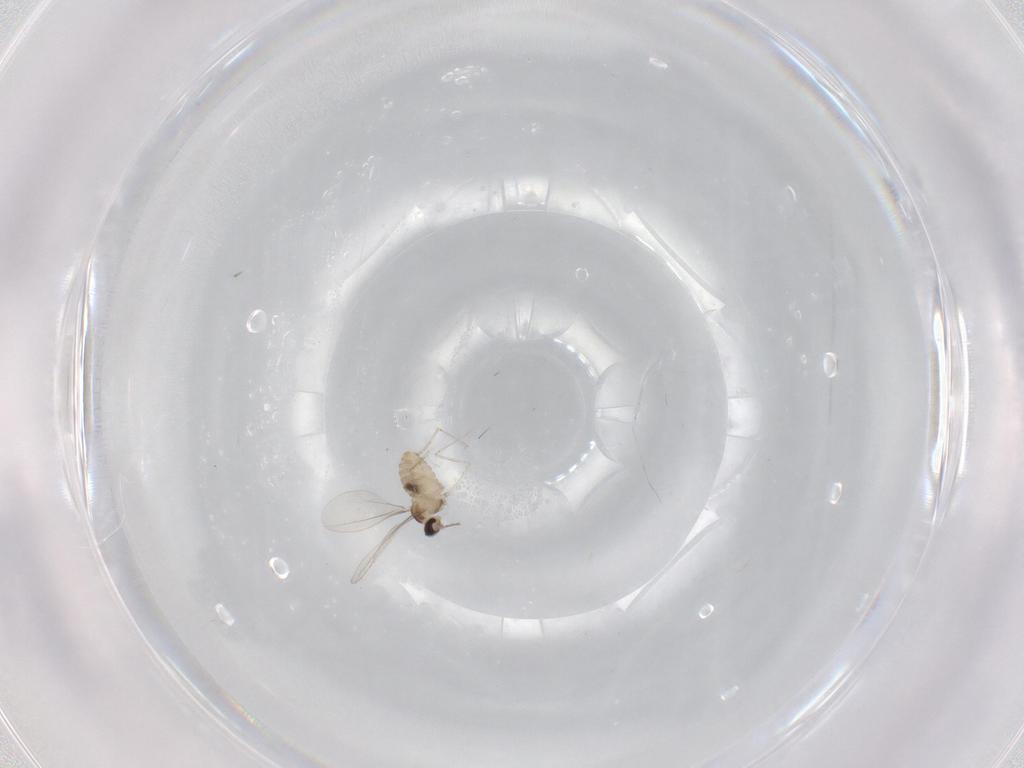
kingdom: Animalia
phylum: Arthropoda
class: Insecta
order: Diptera
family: Cecidomyiidae
